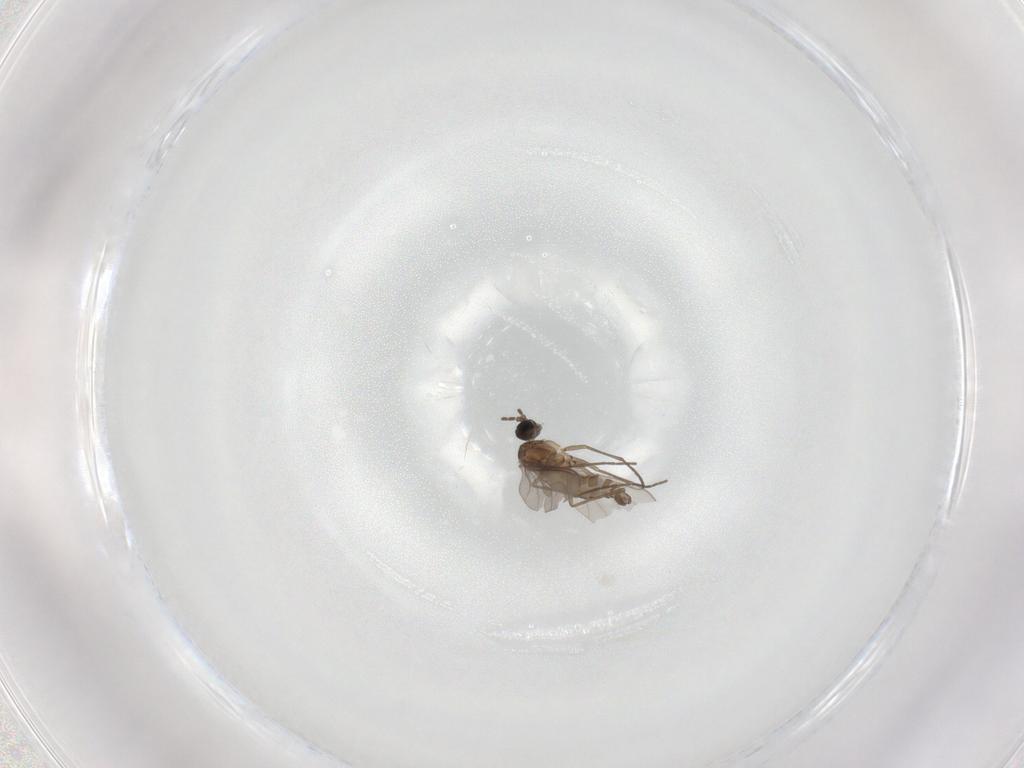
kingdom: Animalia
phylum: Arthropoda
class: Insecta
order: Diptera
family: Sciaridae
